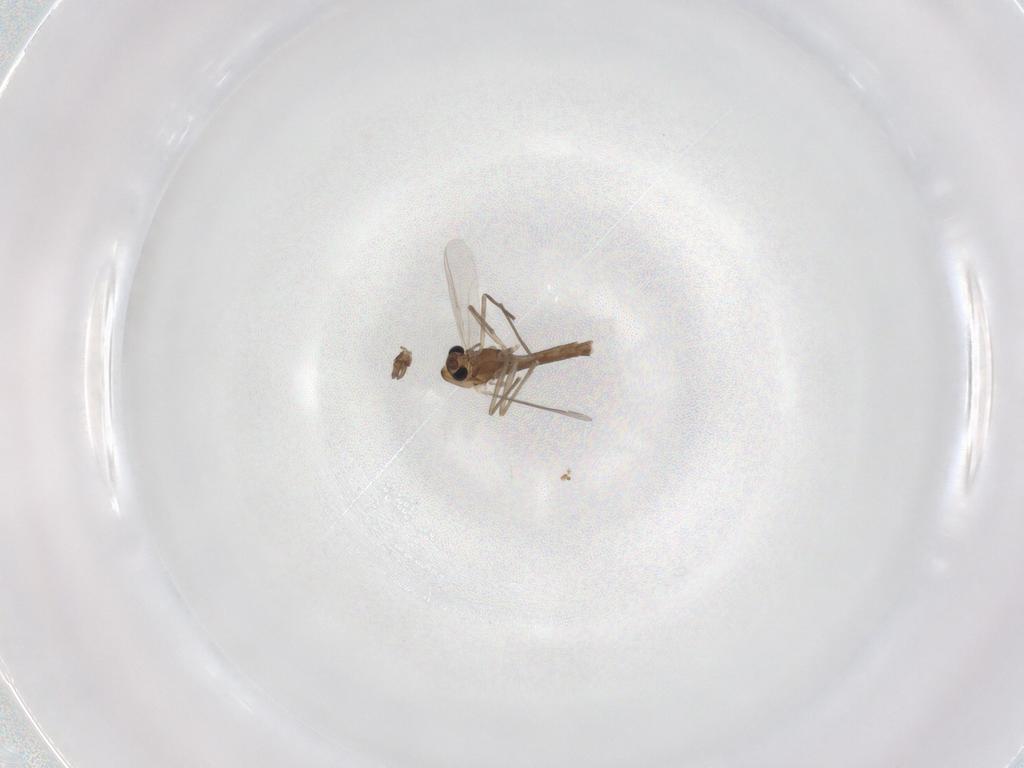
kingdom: Animalia
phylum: Arthropoda
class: Insecta
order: Diptera
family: Chironomidae
